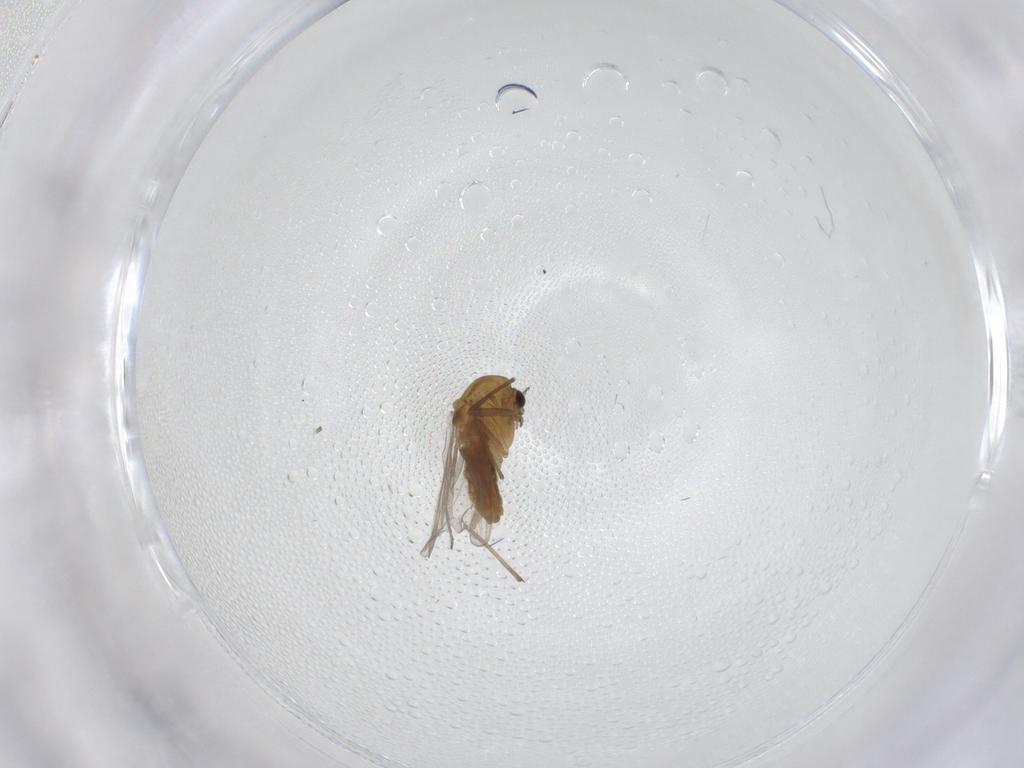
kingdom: Animalia
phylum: Arthropoda
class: Insecta
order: Diptera
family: Chironomidae
